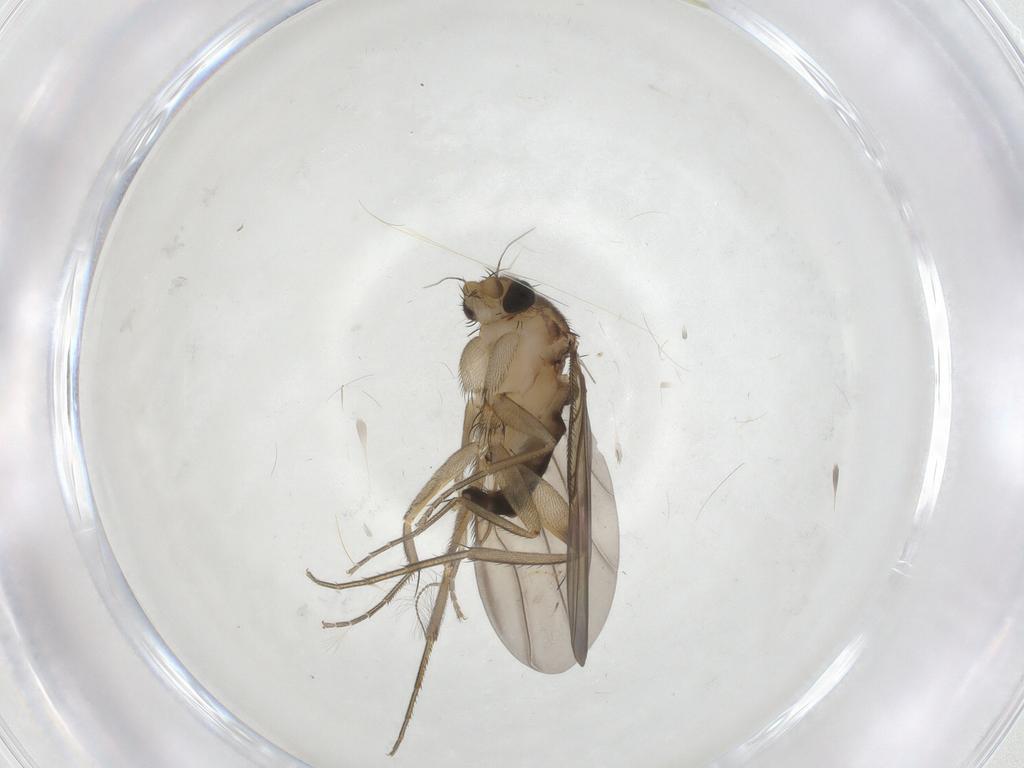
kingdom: Animalia
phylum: Arthropoda
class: Insecta
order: Diptera
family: Phoridae
